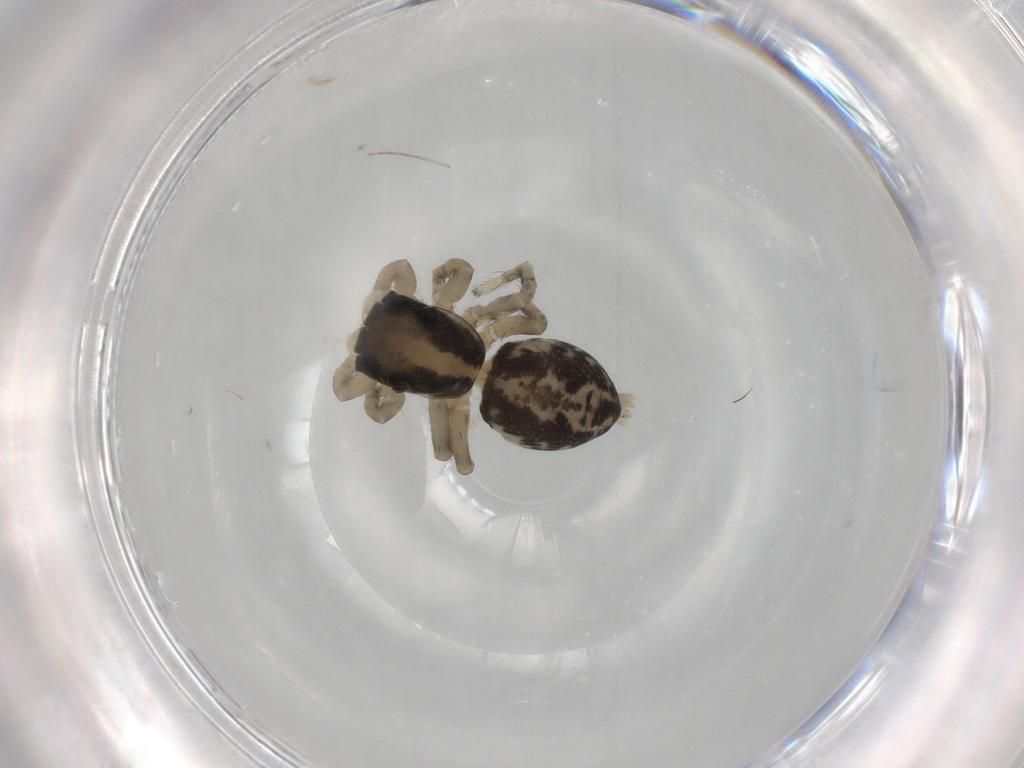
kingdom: Animalia
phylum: Arthropoda
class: Arachnida
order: Araneae
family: Salticidae
